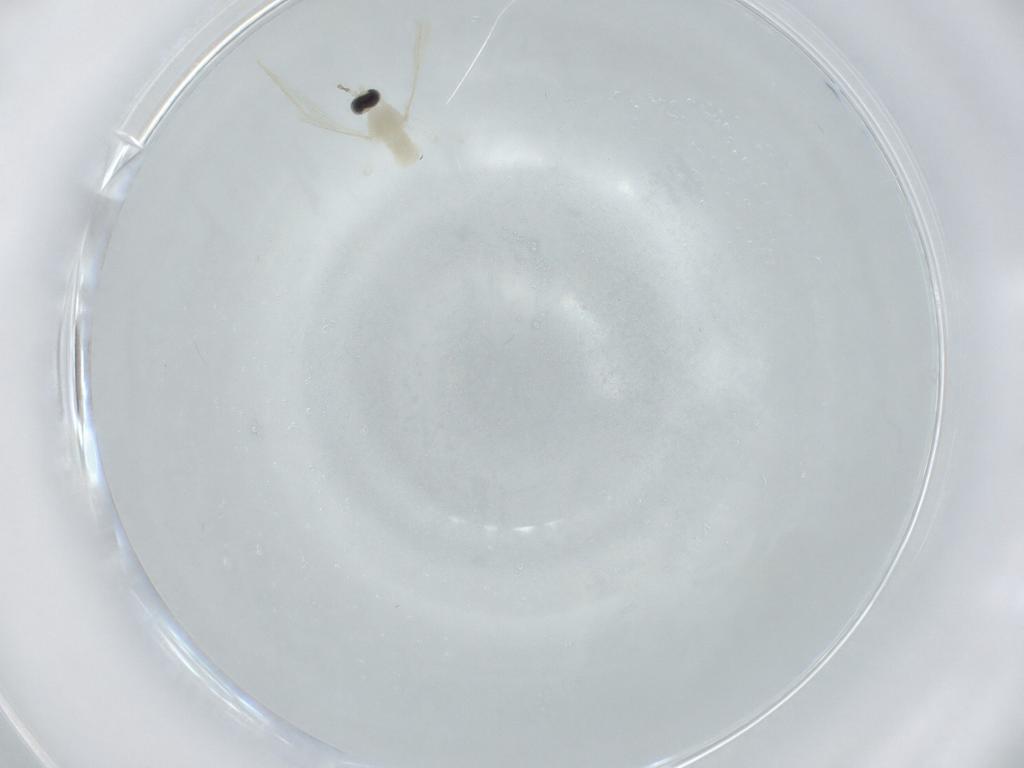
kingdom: Animalia
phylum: Arthropoda
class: Insecta
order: Diptera
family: Cecidomyiidae
